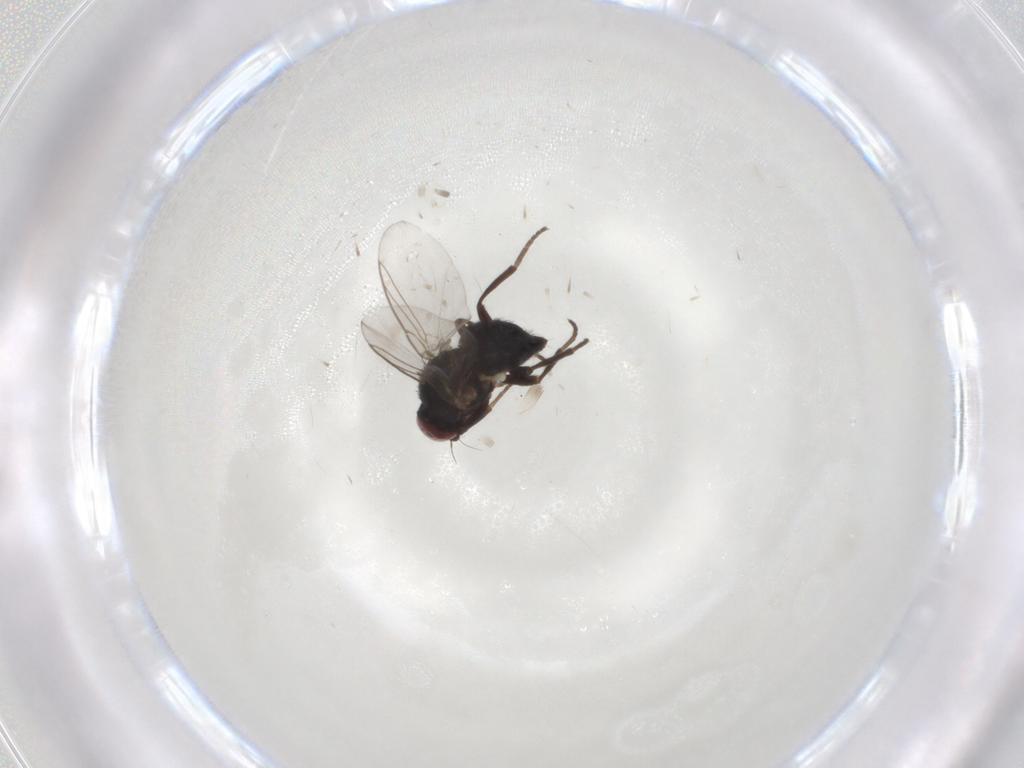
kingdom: Animalia
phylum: Arthropoda
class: Insecta
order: Diptera
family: Agromyzidae
